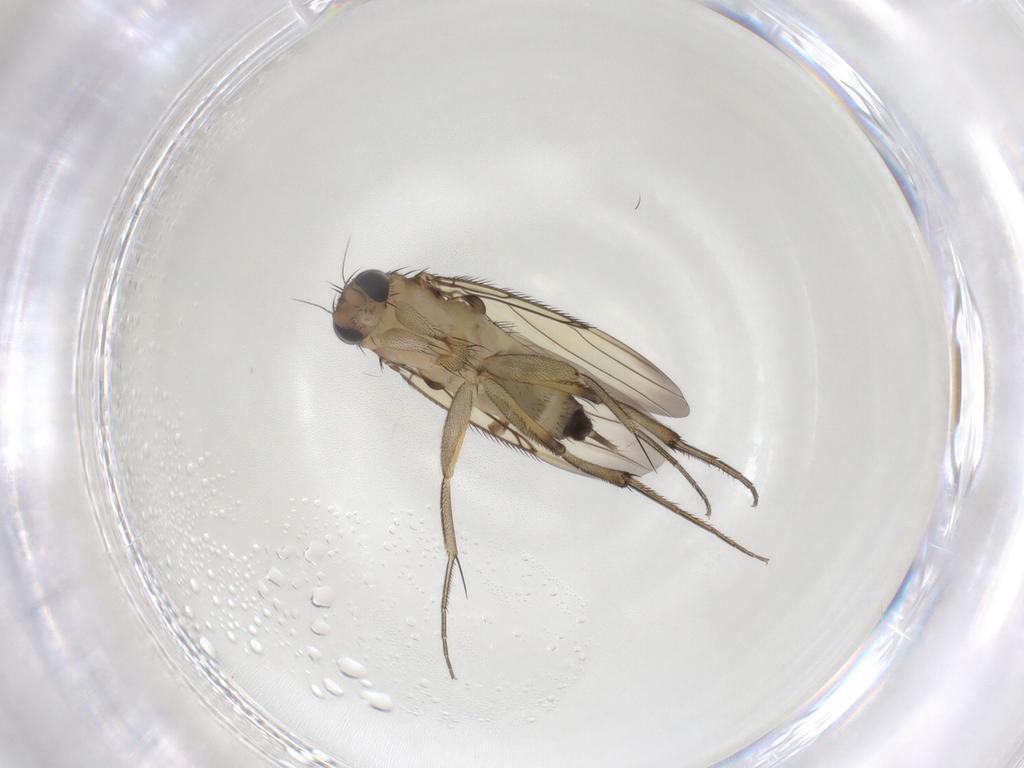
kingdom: Animalia
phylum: Arthropoda
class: Insecta
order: Diptera
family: Phoridae
